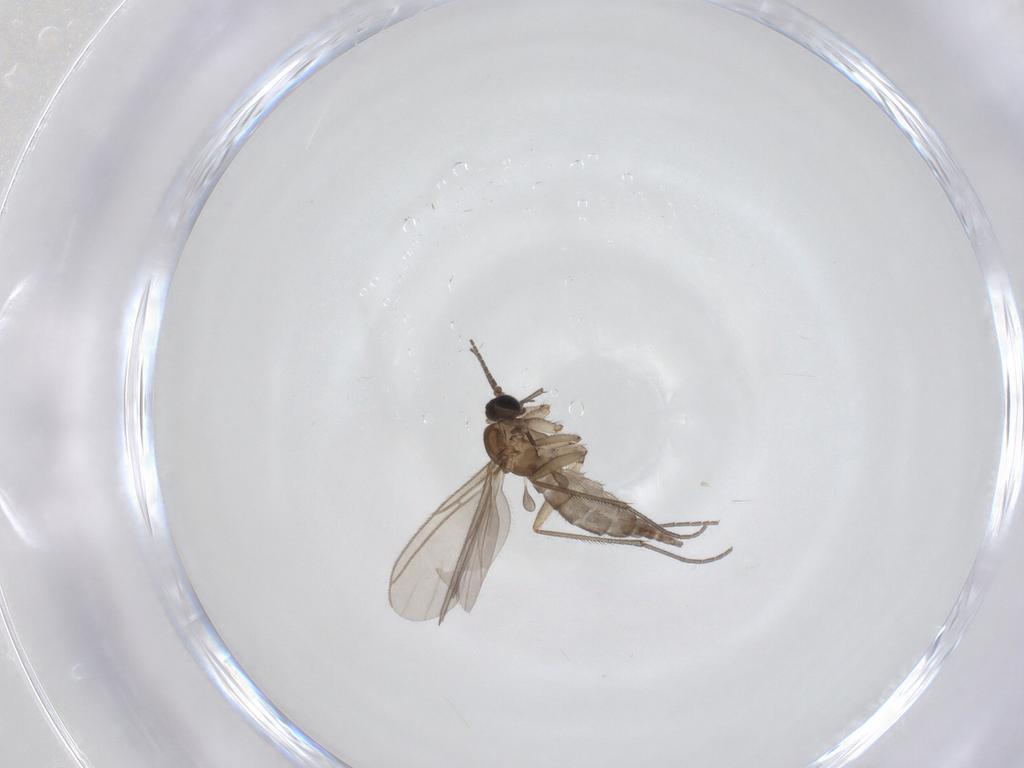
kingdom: Animalia
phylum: Arthropoda
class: Insecta
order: Diptera
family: Sciaridae
